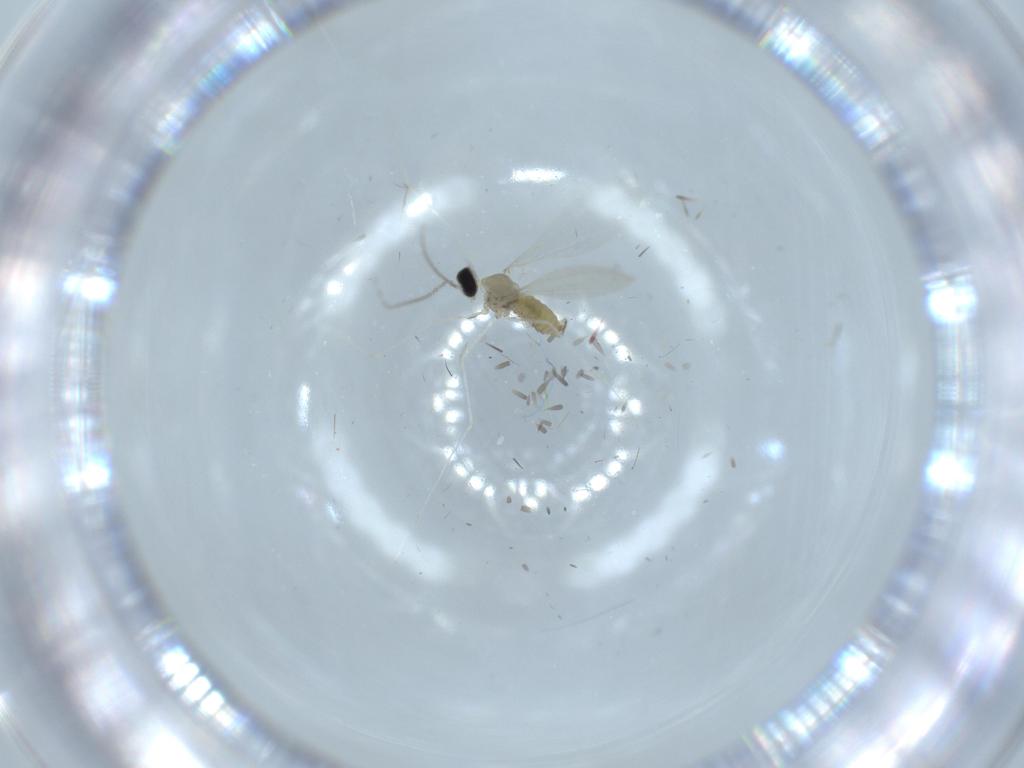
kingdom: Animalia
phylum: Arthropoda
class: Insecta
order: Diptera
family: Cecidomyiidae
